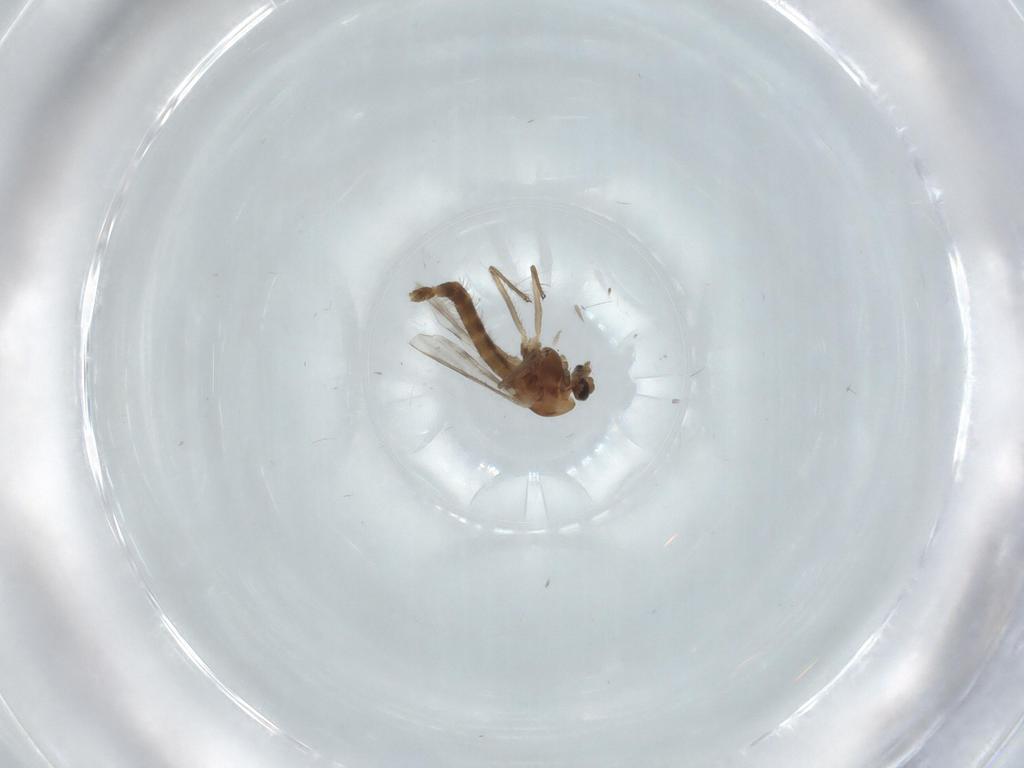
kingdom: Animalia
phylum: Arthropoda
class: Insecta
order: Diptera
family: Chironomidae
